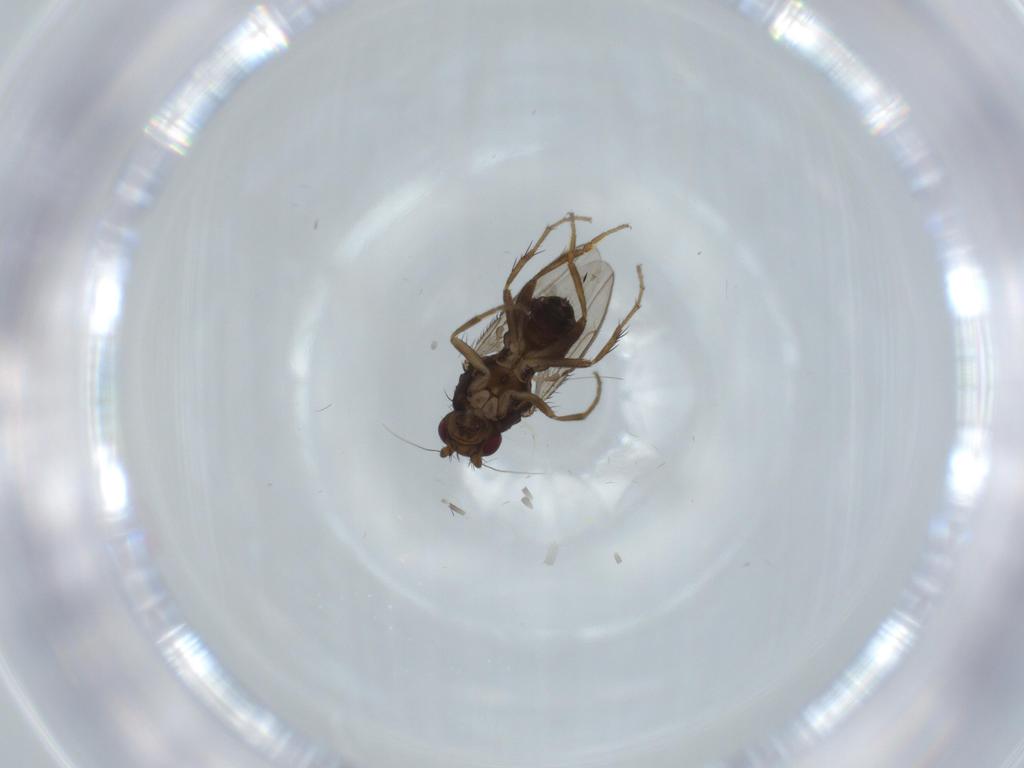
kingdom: Animalia
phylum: Arthropoda
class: Insecta
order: Diptera
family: Sphaeroceridae
